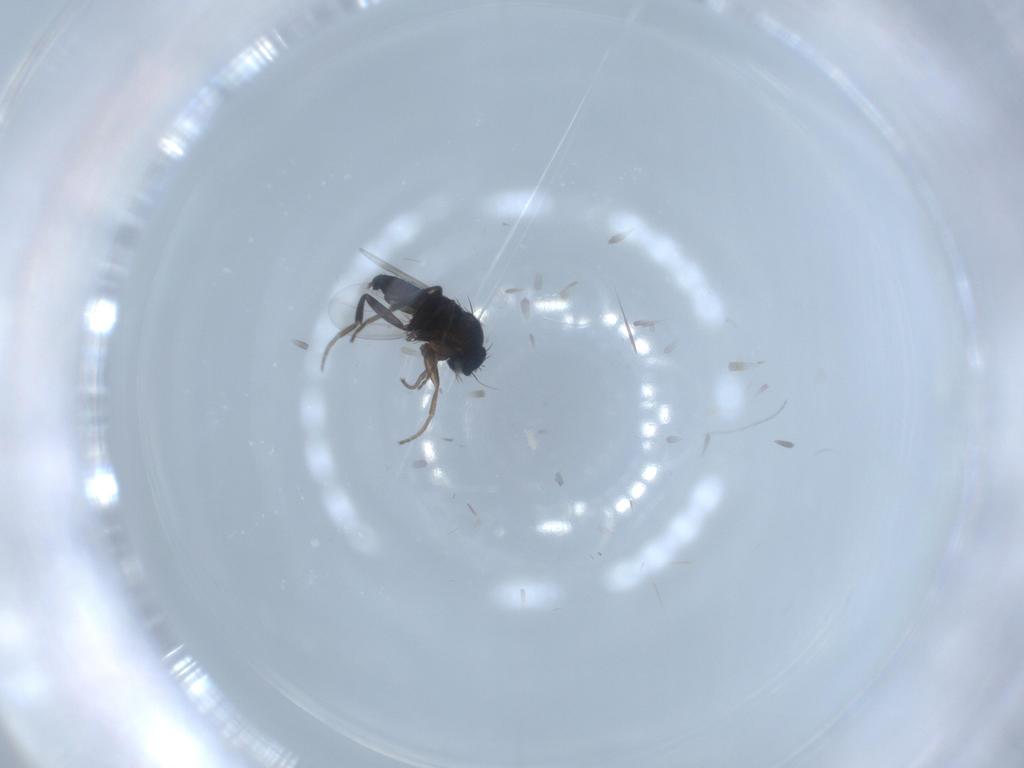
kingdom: Animalia
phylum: Arthropoda
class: Insecta
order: Diptera
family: Phoridae
